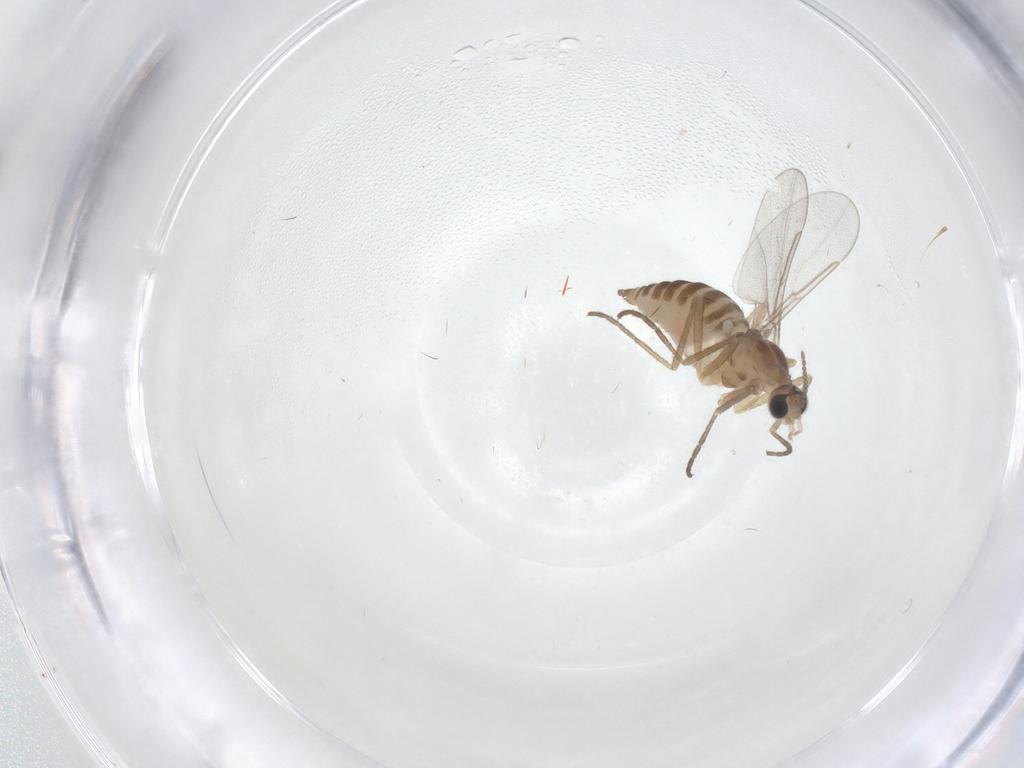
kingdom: Animalia
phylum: Arthropoda
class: Insecta
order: Diptera
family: Cecidomyiidae
